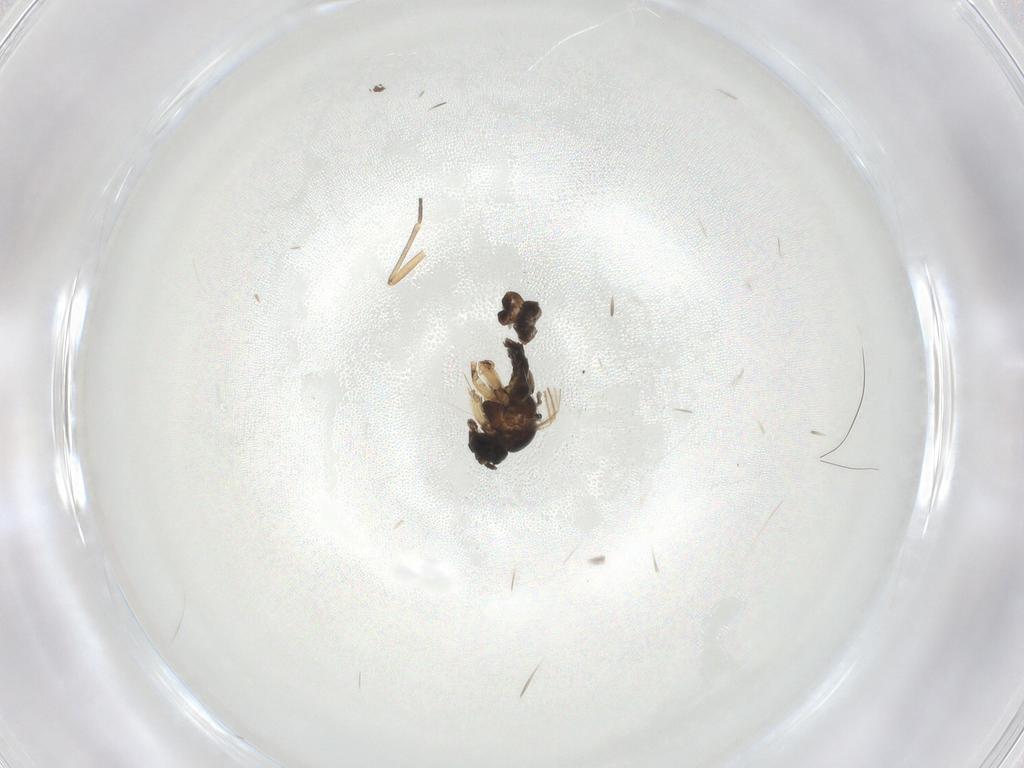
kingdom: Animalia
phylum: Arthropoda
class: Insecta
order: Diptera
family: Sciaridae
